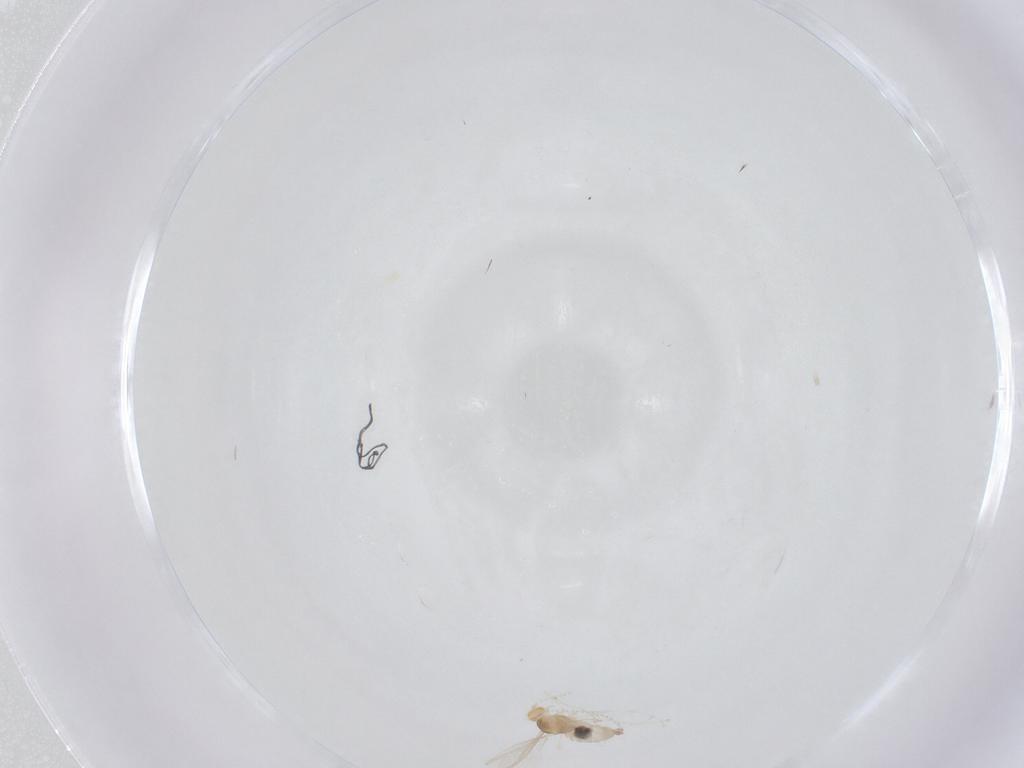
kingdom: Animalia
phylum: Arthropoda
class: Insecta
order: Diptera
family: Cecidomyiidae
